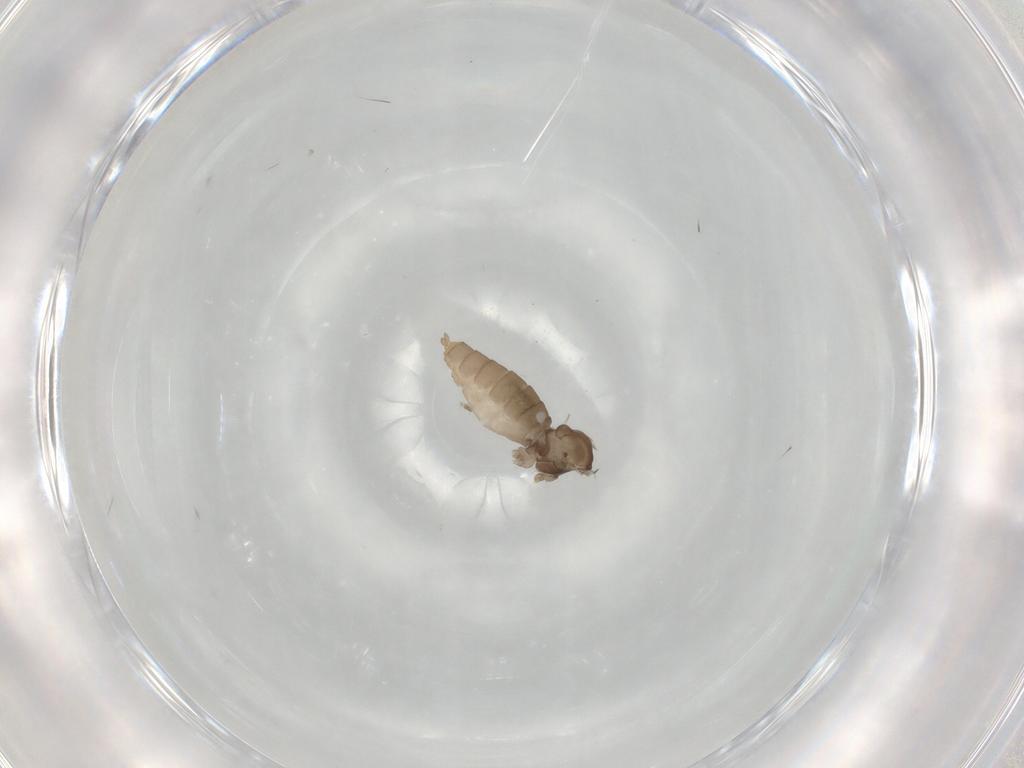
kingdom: Animalia
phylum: Arthropoda
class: Insecta
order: Diptera
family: Cecidomyiidae
